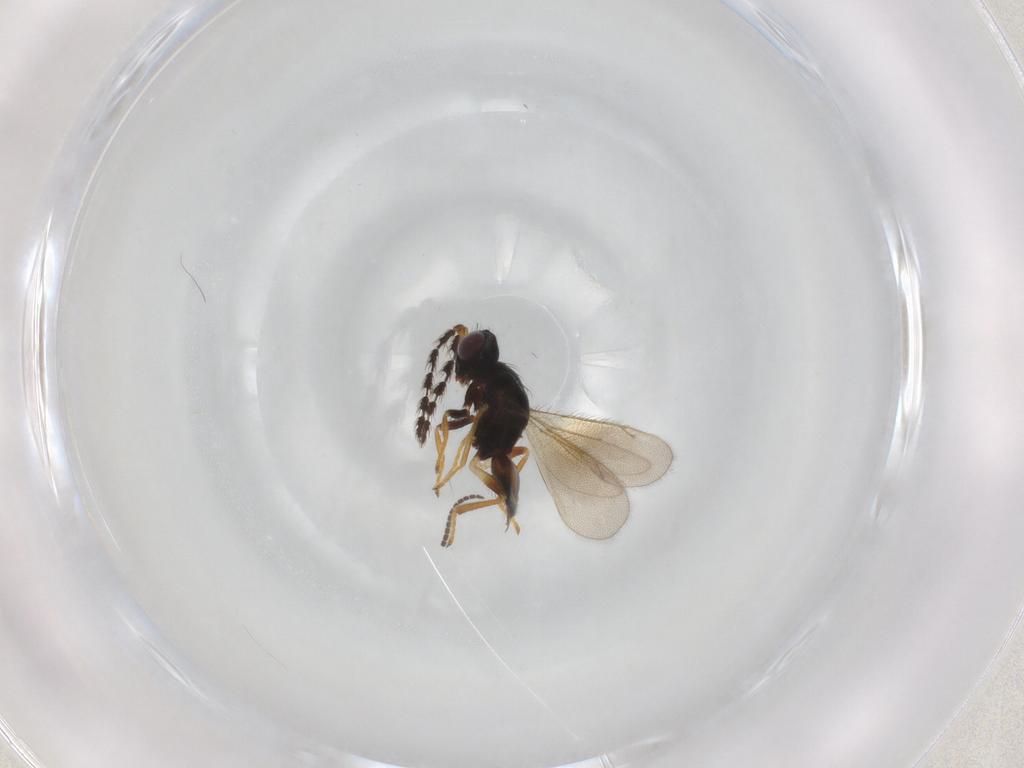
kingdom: Animalia
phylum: Arthropoda
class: Insecta
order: Hymenoptera
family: Eulophidae
